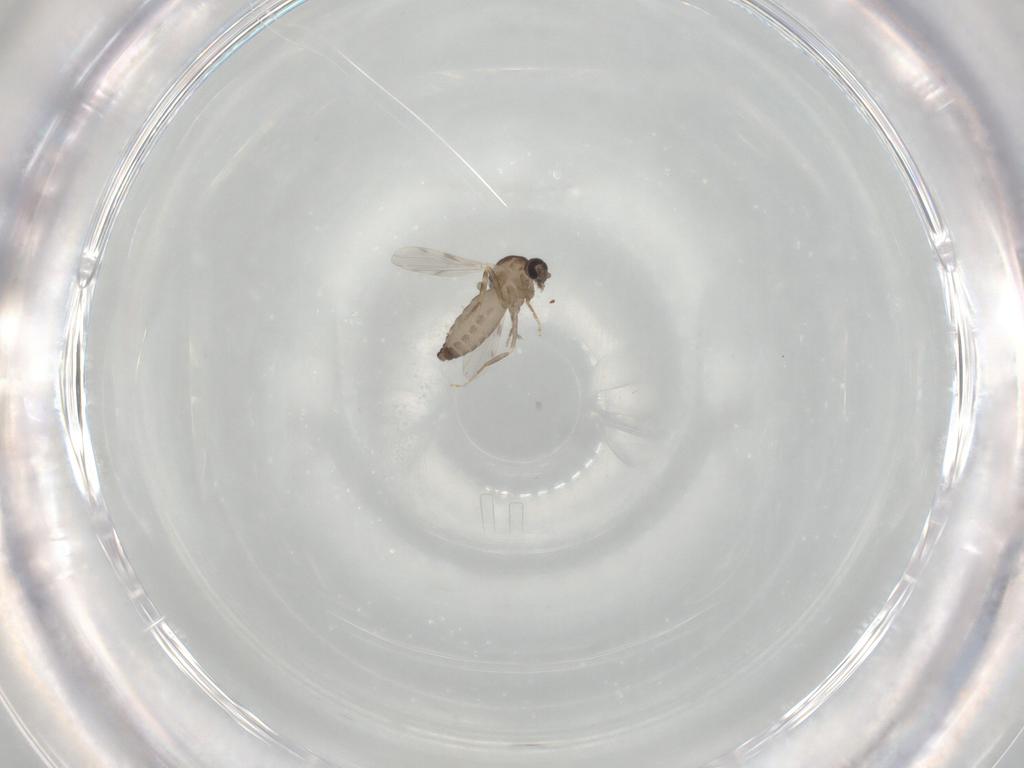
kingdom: Animalia
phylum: Arthropoda
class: Insecta
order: Diptera
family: Ceratopogonidae
